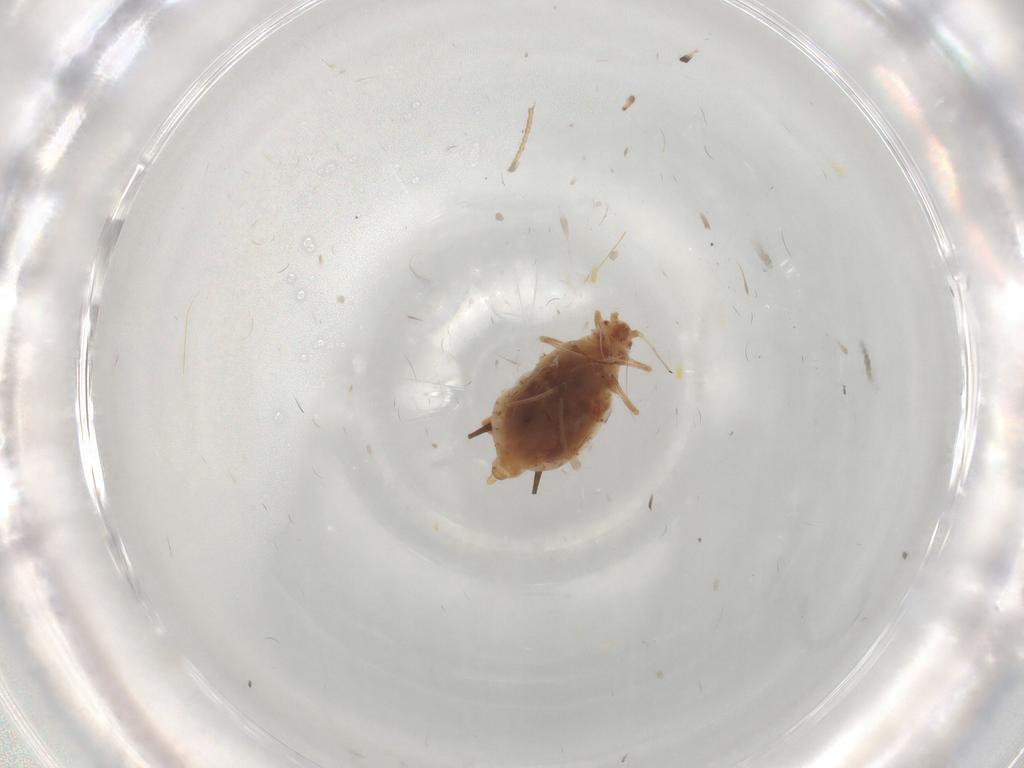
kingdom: Animalia
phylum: Arthropoda
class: Insecta
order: Hemiptera
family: Aphididae
